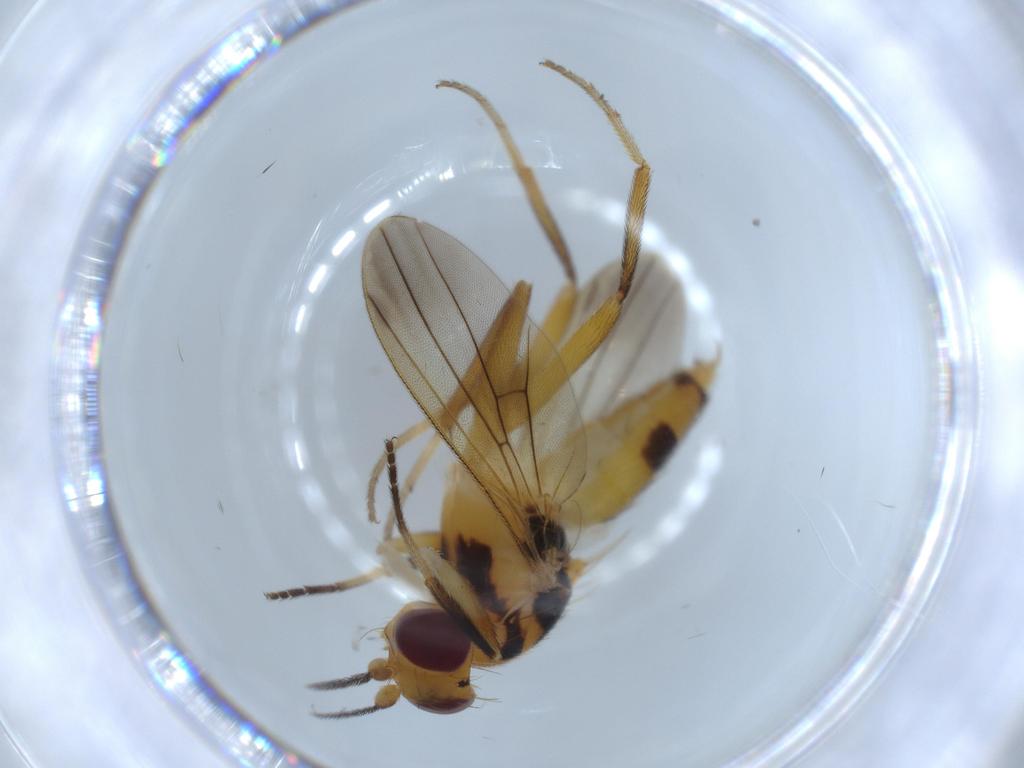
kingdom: Animalia
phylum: Arthropoda
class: Insecta
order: Diptera
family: Clusiidae
